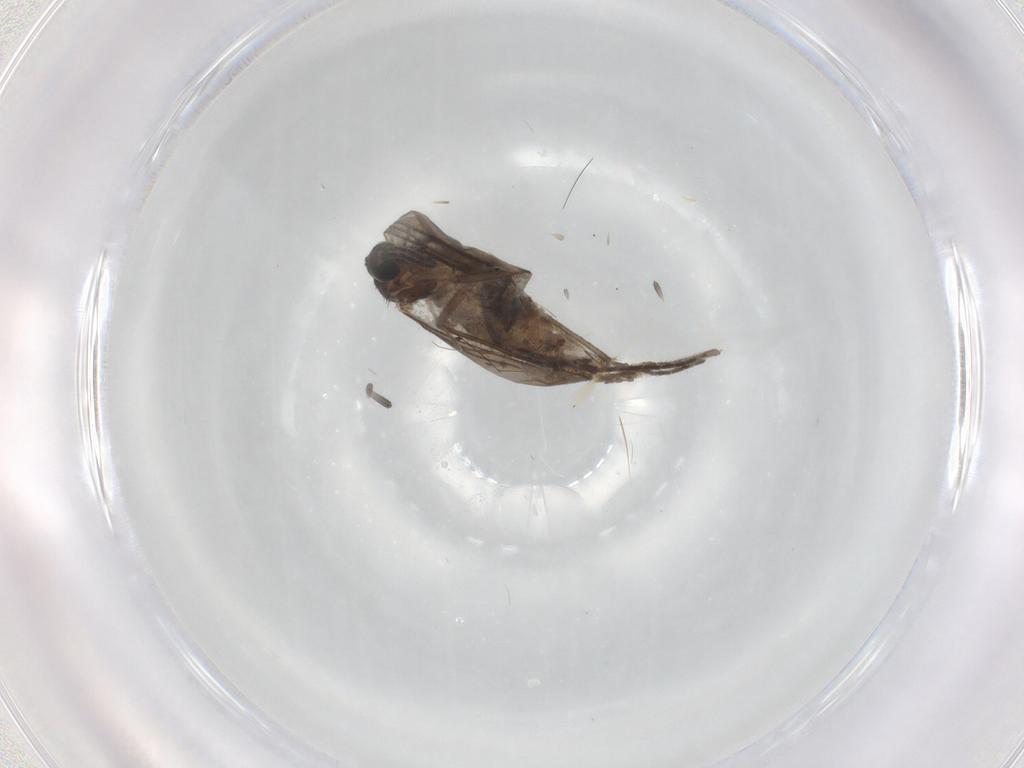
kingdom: Animalia
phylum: Arthropoda
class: Insecta
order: Diptera
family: Sciaridae
